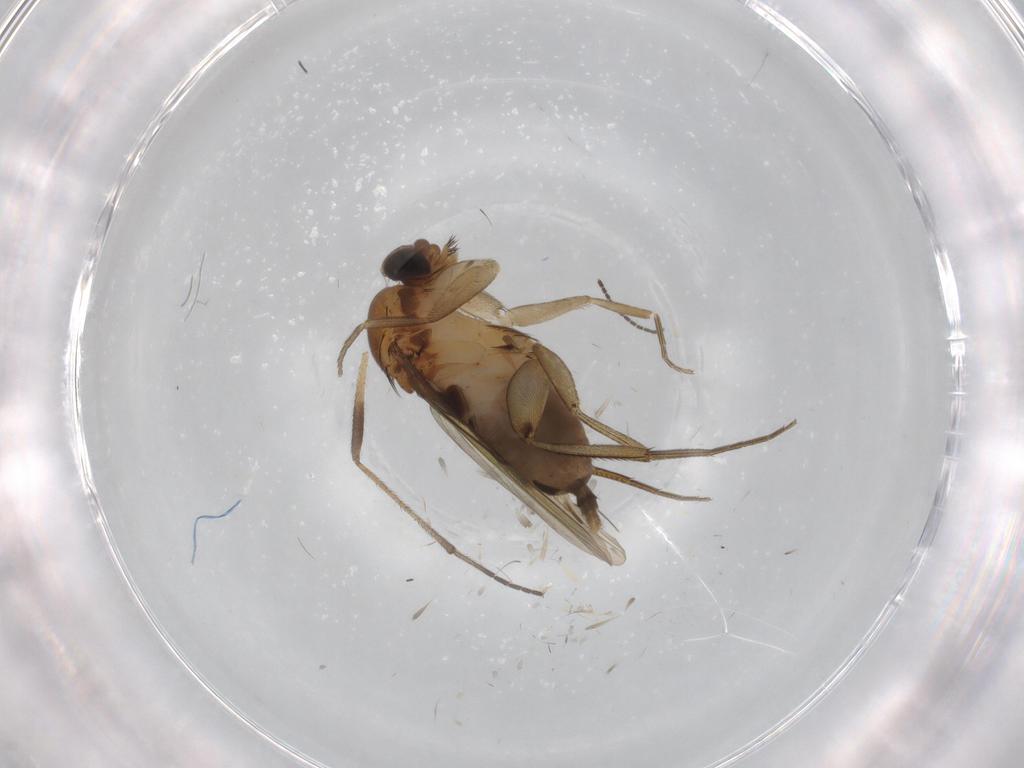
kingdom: Animalia
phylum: Arthropoda
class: Insecta
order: Diptera
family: Phoridae
